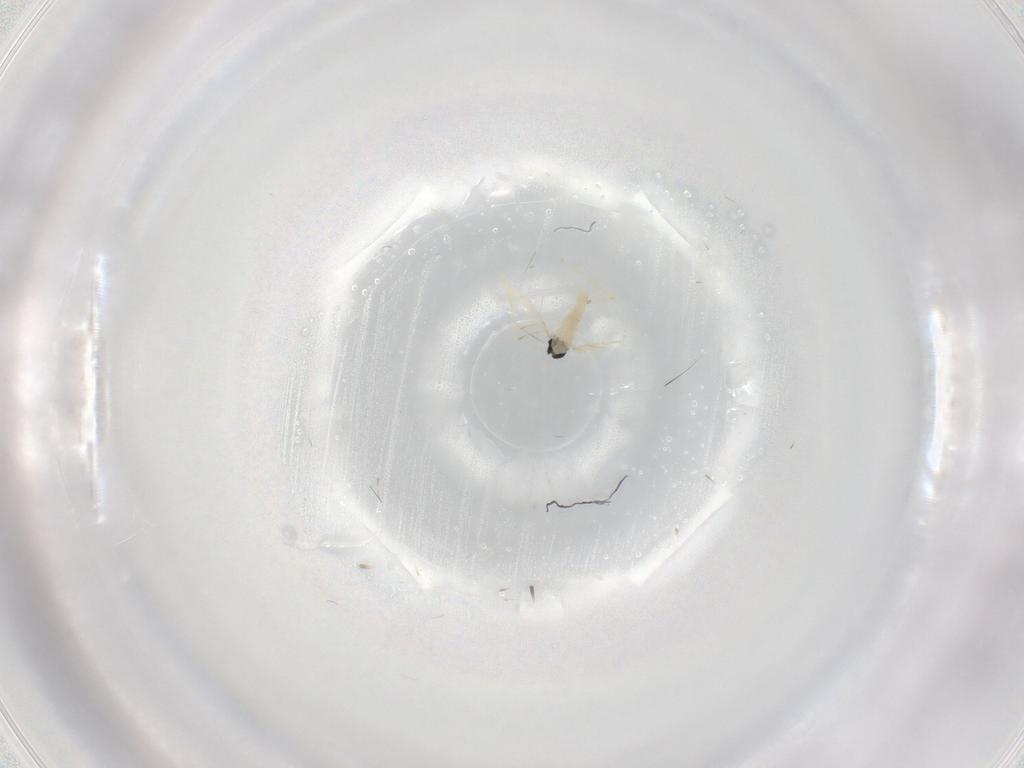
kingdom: Animalia
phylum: Arthropoda
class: Insecta
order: Diptera
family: Cecidomyiidae
